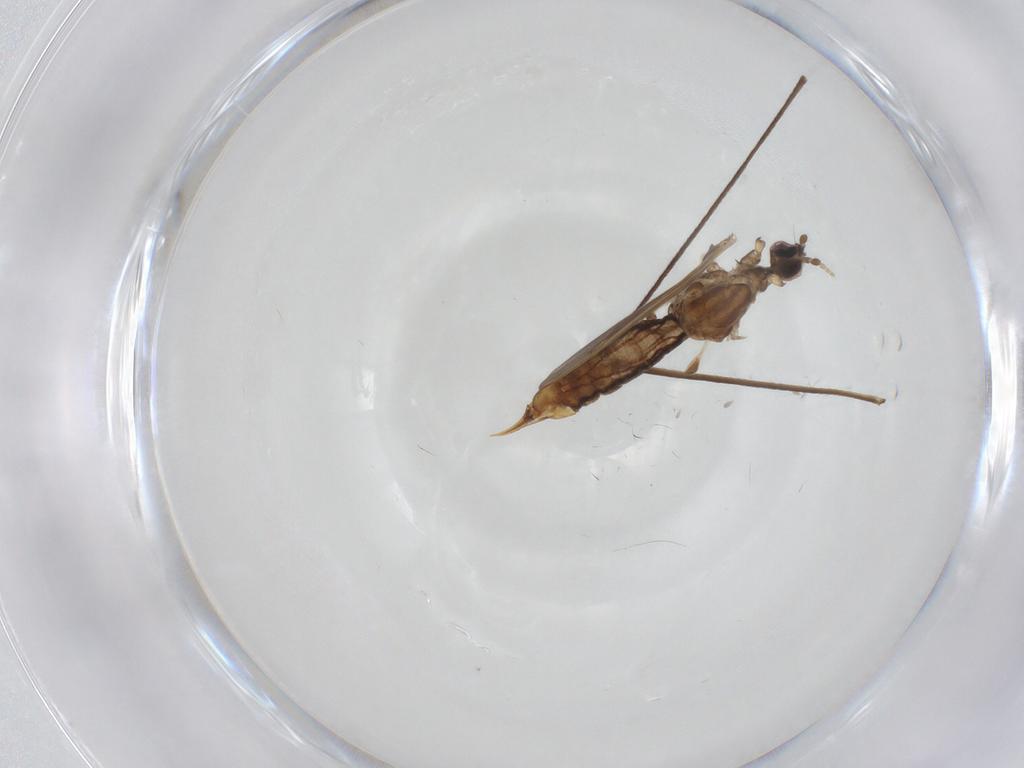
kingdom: Animalia
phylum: Arthropoda
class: Insecta
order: Diptera
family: Limoniidae
